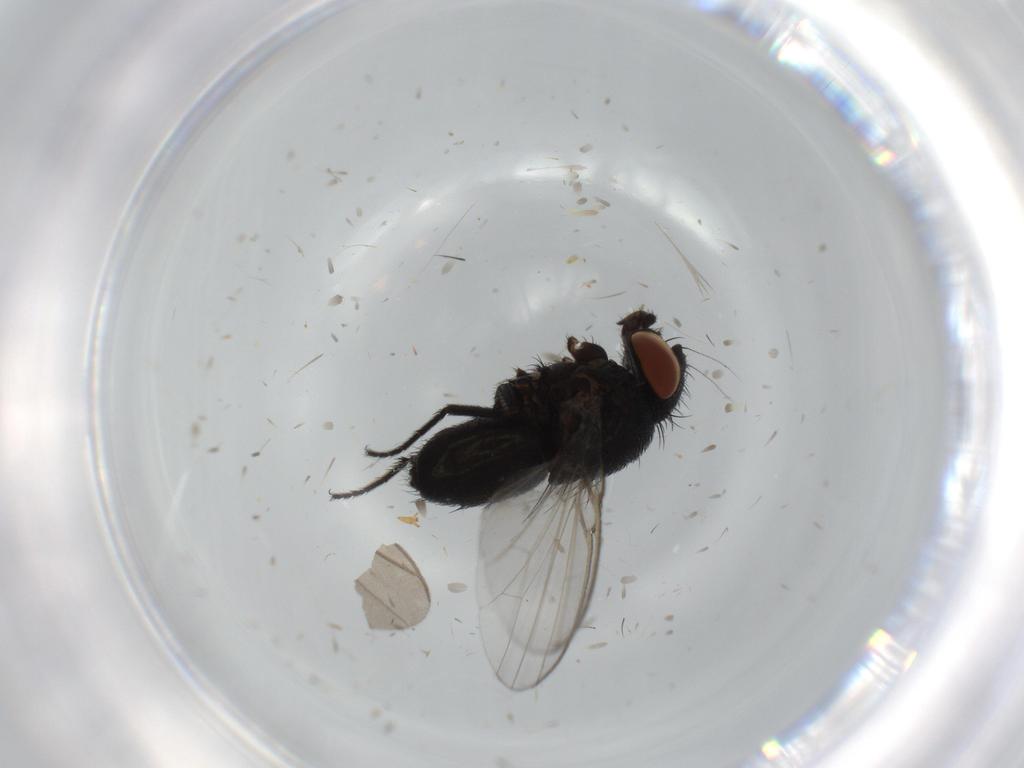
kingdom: Animalia
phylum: Arthropoda
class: Insecta
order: Diptera
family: Milichiidae
